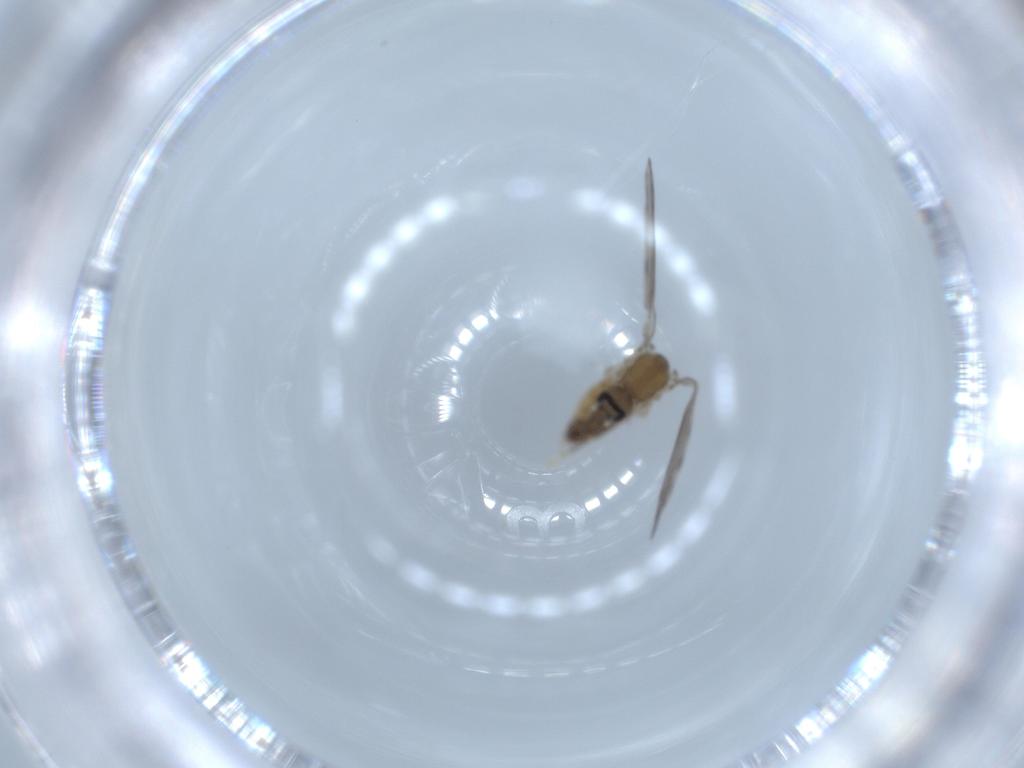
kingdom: Animalia
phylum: Arthropoda
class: Insecta
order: Diptera
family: Psychodidae
